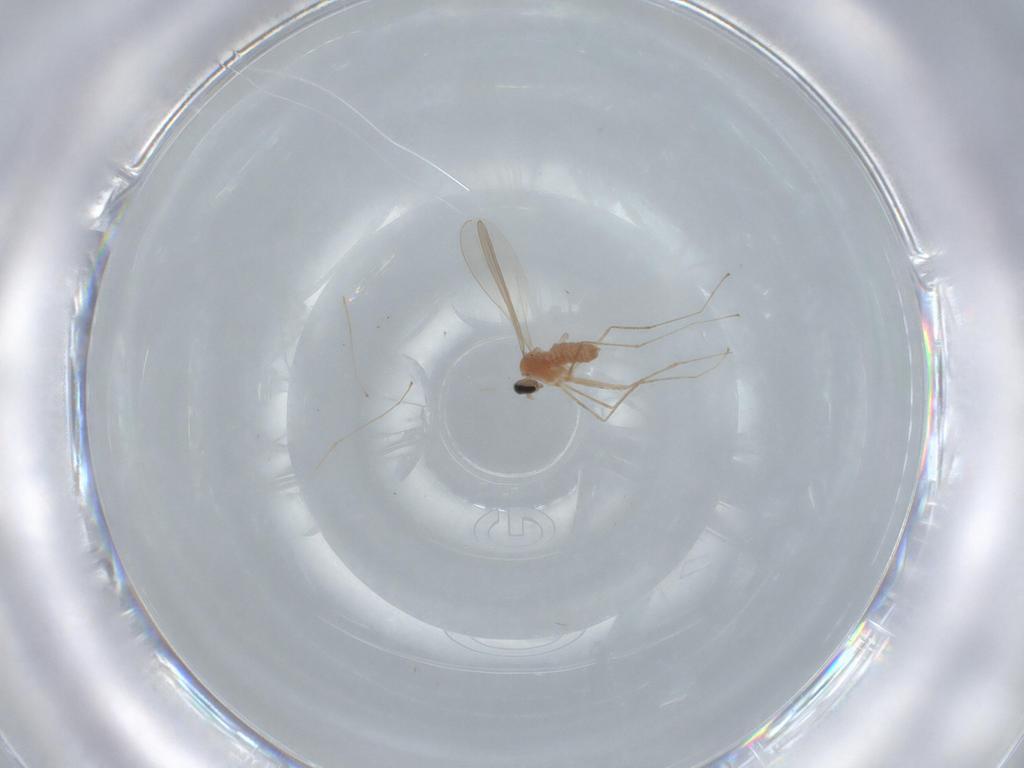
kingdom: Animalia
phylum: Arthropoda
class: Insecta
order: Diptera
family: Cecidomyiidae
